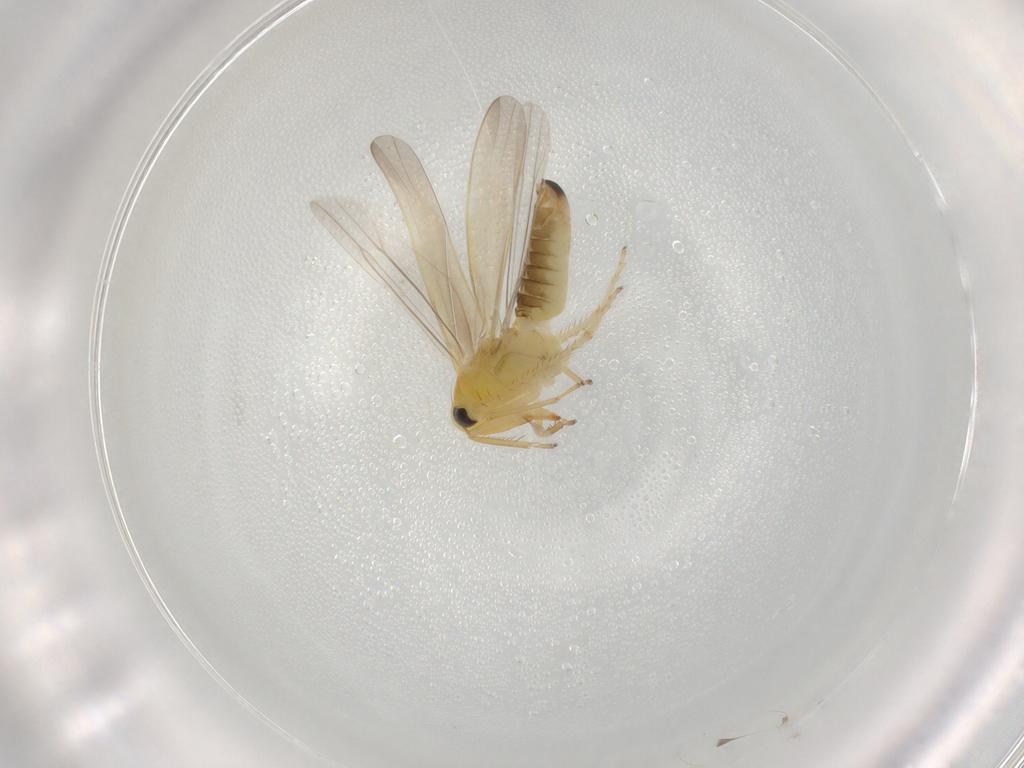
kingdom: Animalia
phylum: Arthropoda
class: Insecta
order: Hemiptera
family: Cicadellidae
